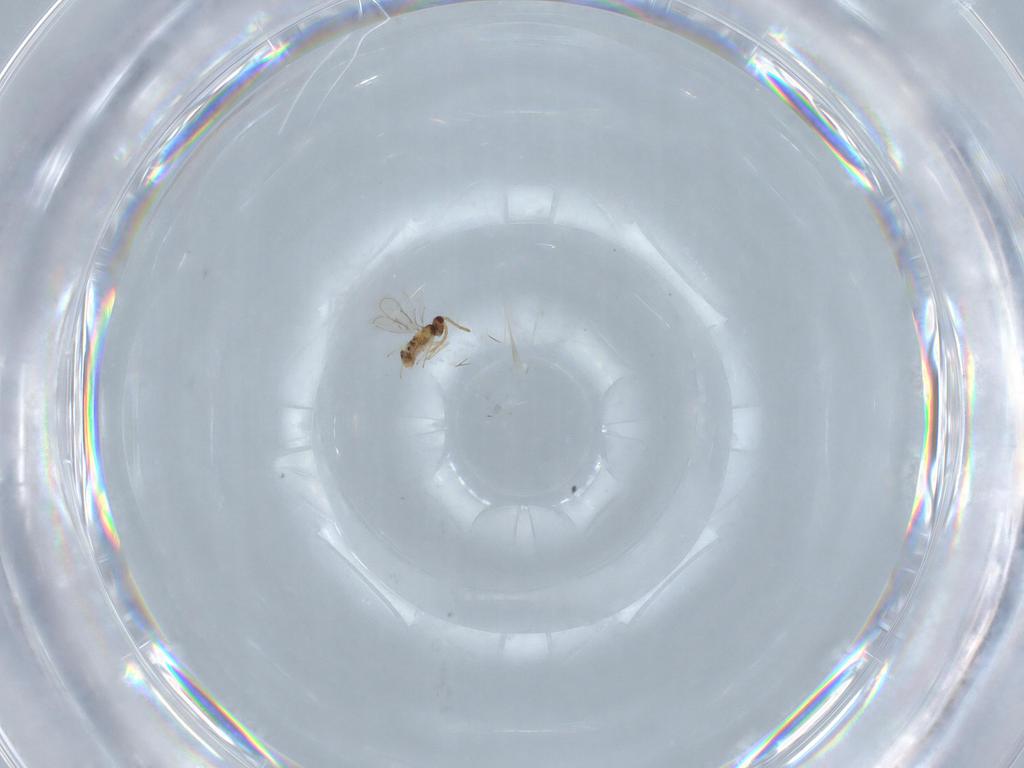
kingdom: Animalia
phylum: Arthropoda
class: Insecta
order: Hymenoptera
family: Aphelinidae
